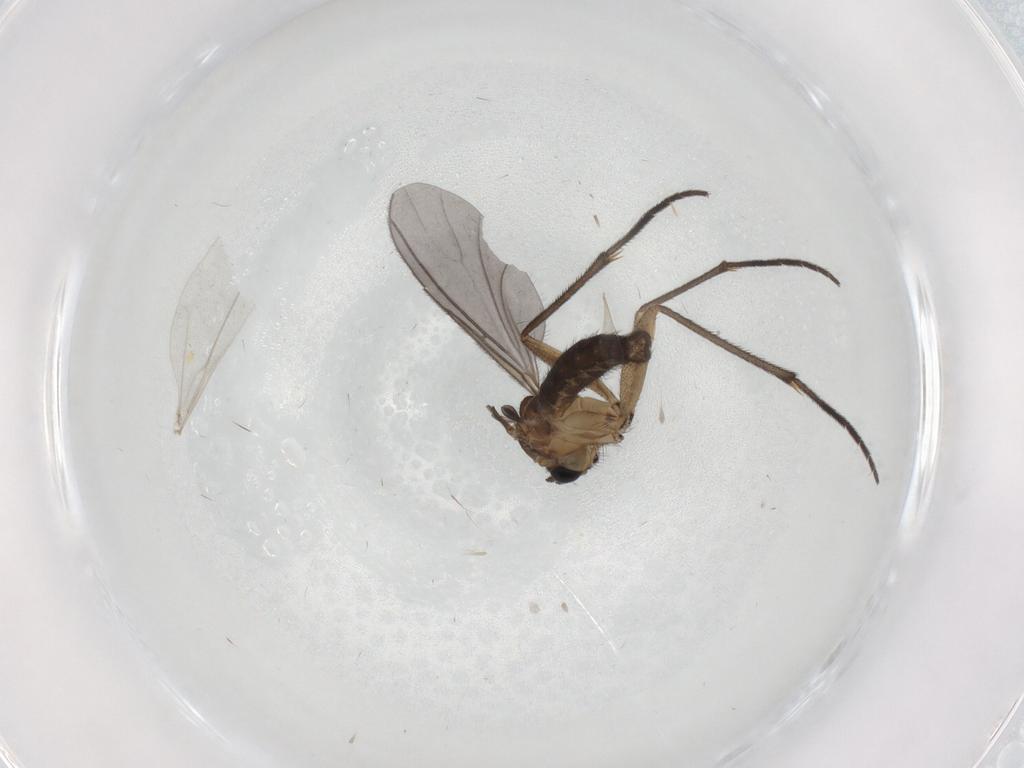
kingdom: Animalia
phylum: Arthropoda
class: Insecta
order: Diptera
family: Sciaridae
